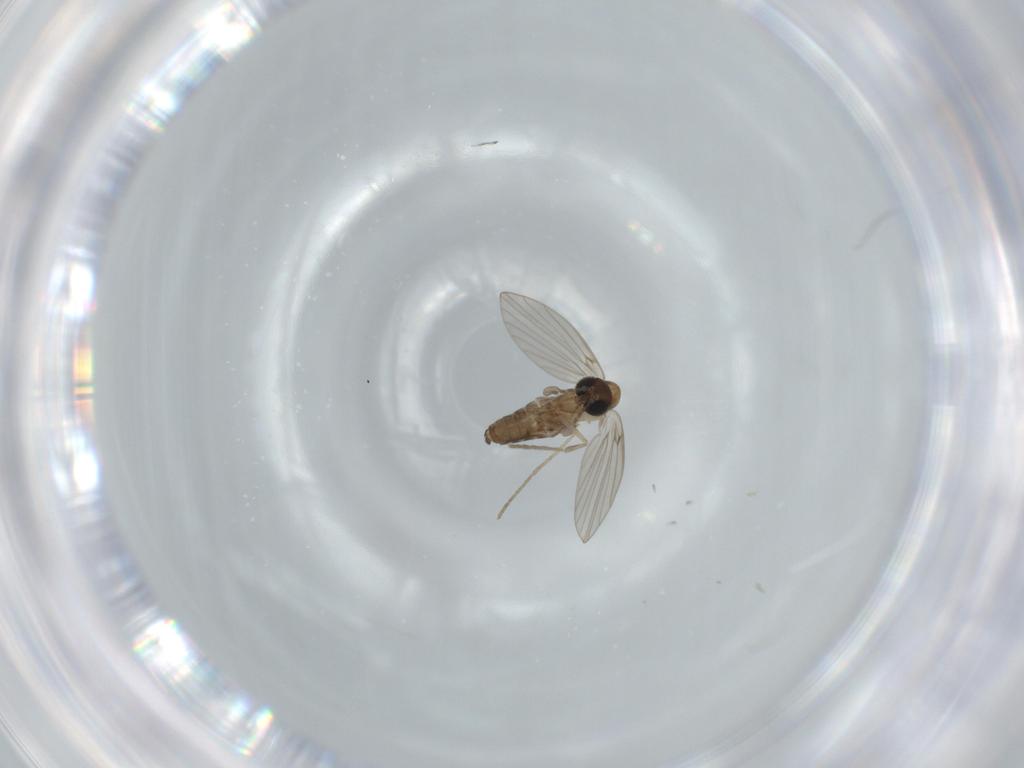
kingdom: Animalia
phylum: Arthropoda
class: Insecta
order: Diptera
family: Psychodidae
